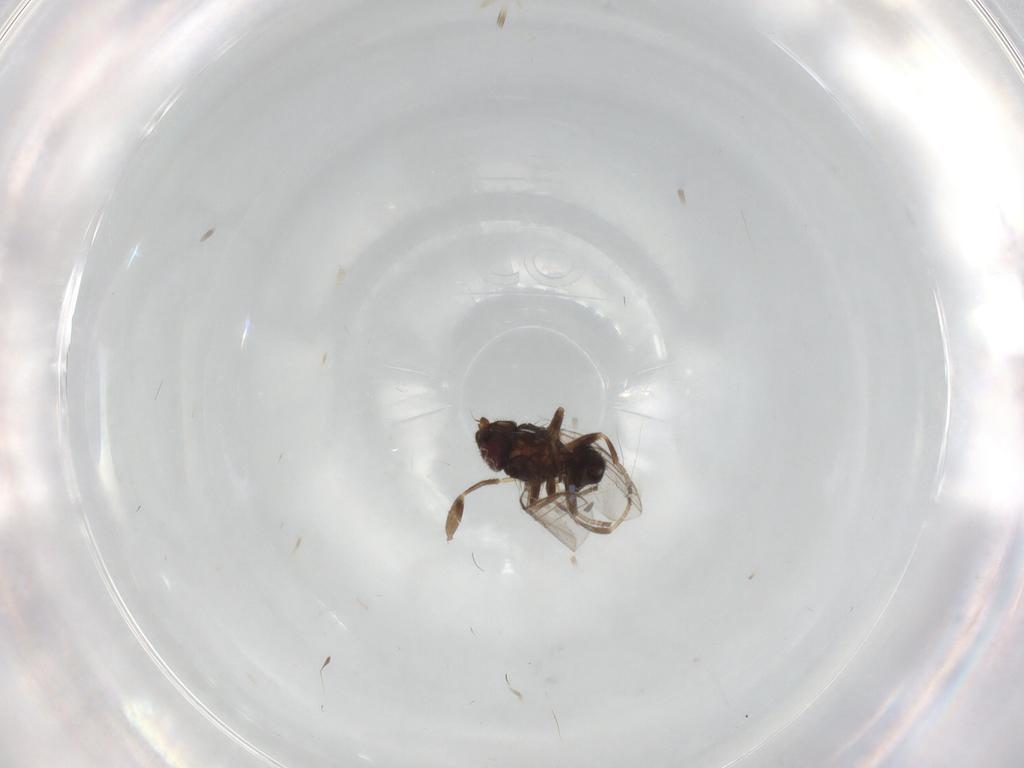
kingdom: Animalia
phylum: Arthropoda
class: Insecta
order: Diptera
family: Chloropidae
